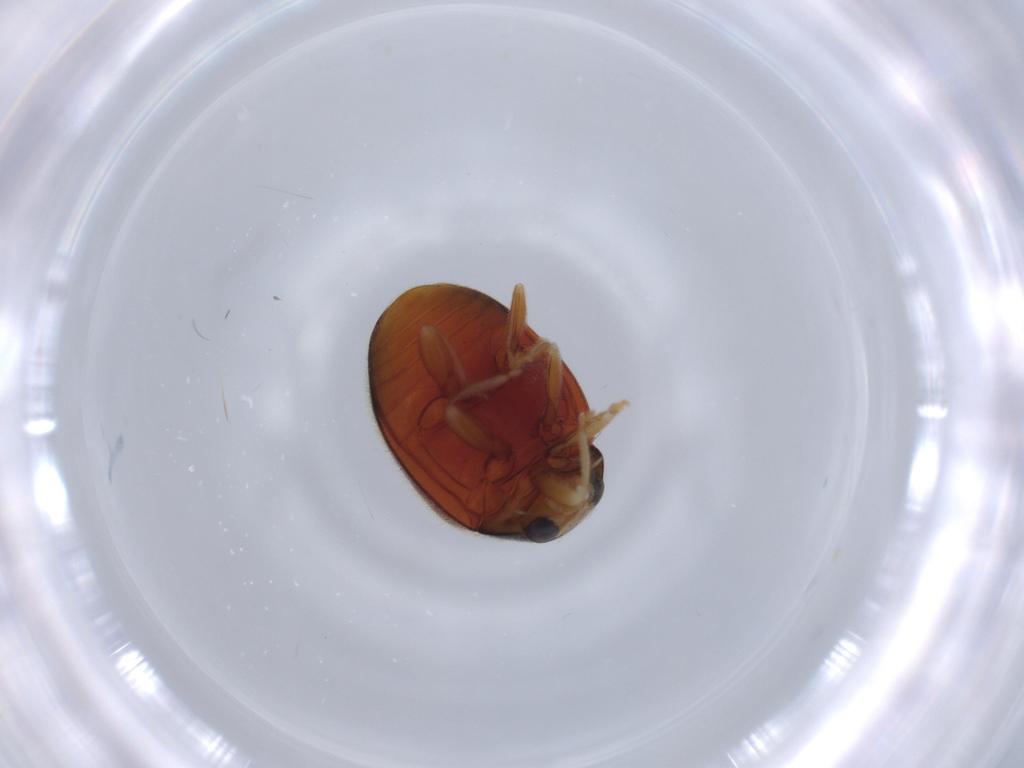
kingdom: Animalia
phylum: Arthropoda
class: Insecta
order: Coleoptera
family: Coccinellidae
